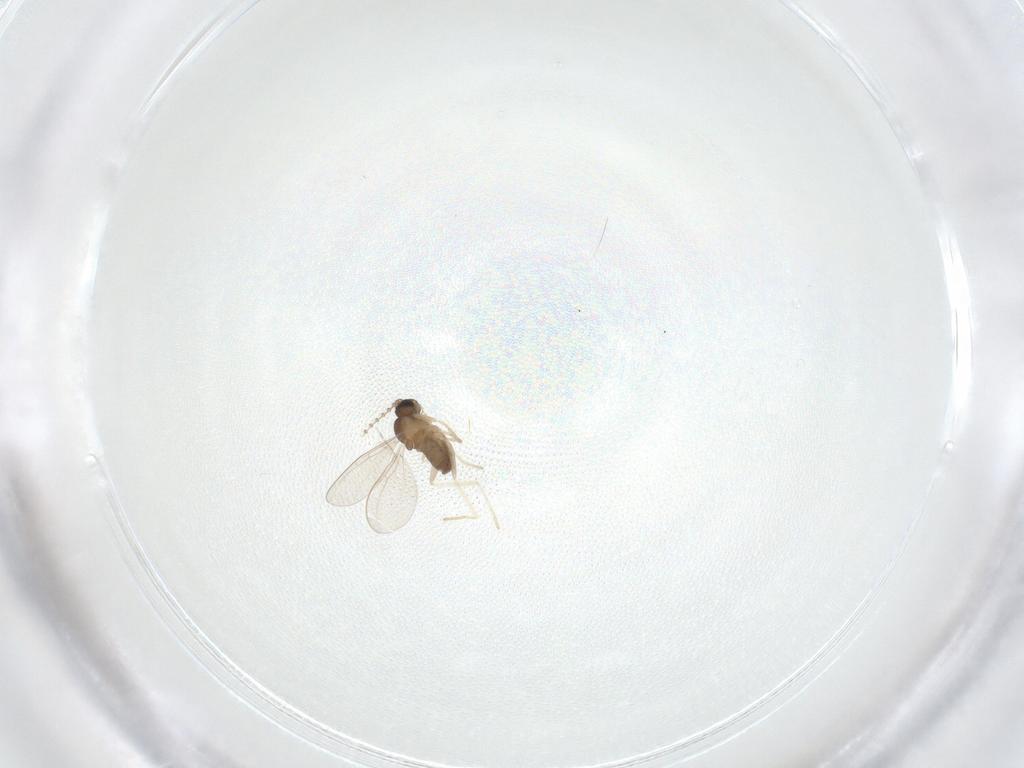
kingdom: Animalia
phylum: Arthropoda
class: Insecta
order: Diptera
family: Cecidomyiidae
